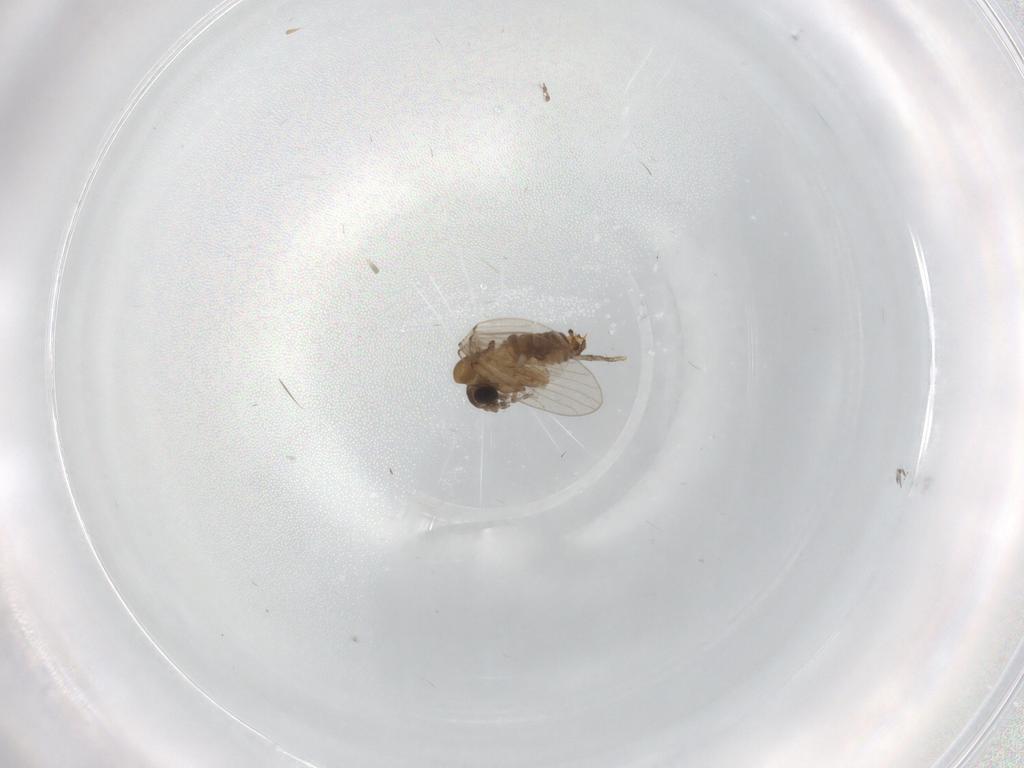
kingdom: Animalia
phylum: Arthropoda
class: Insecta
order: Diptera
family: Psychodidae
